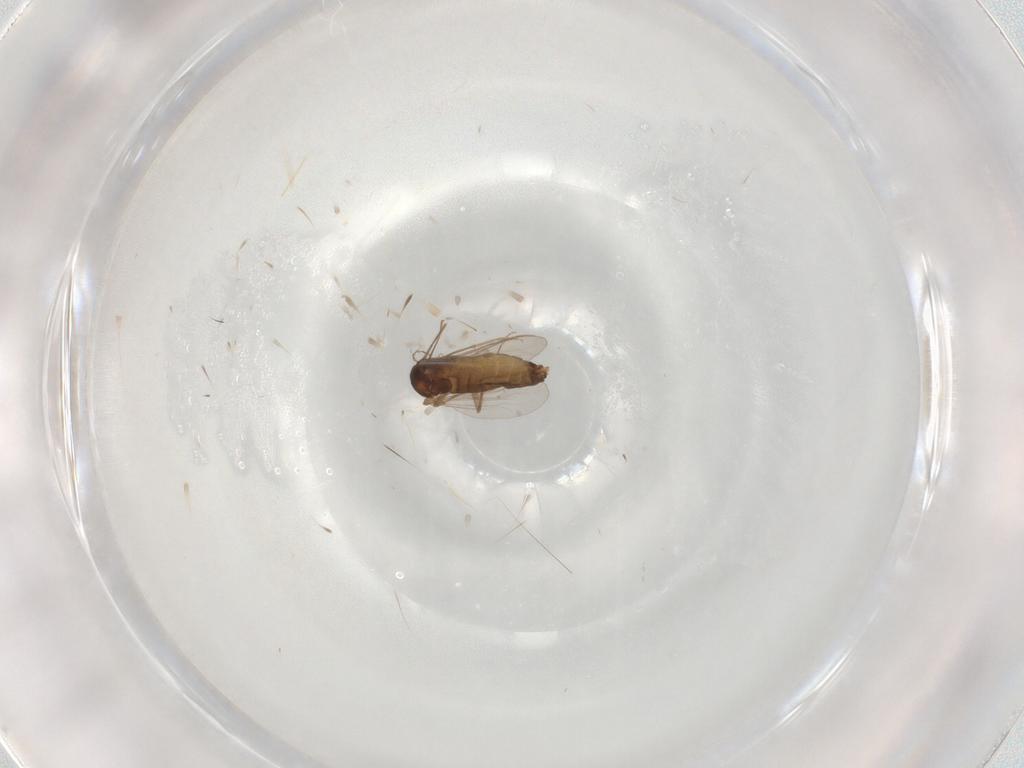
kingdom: Animalia
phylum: Arthropoda
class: Insecta
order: Diptera
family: Chironomidae
